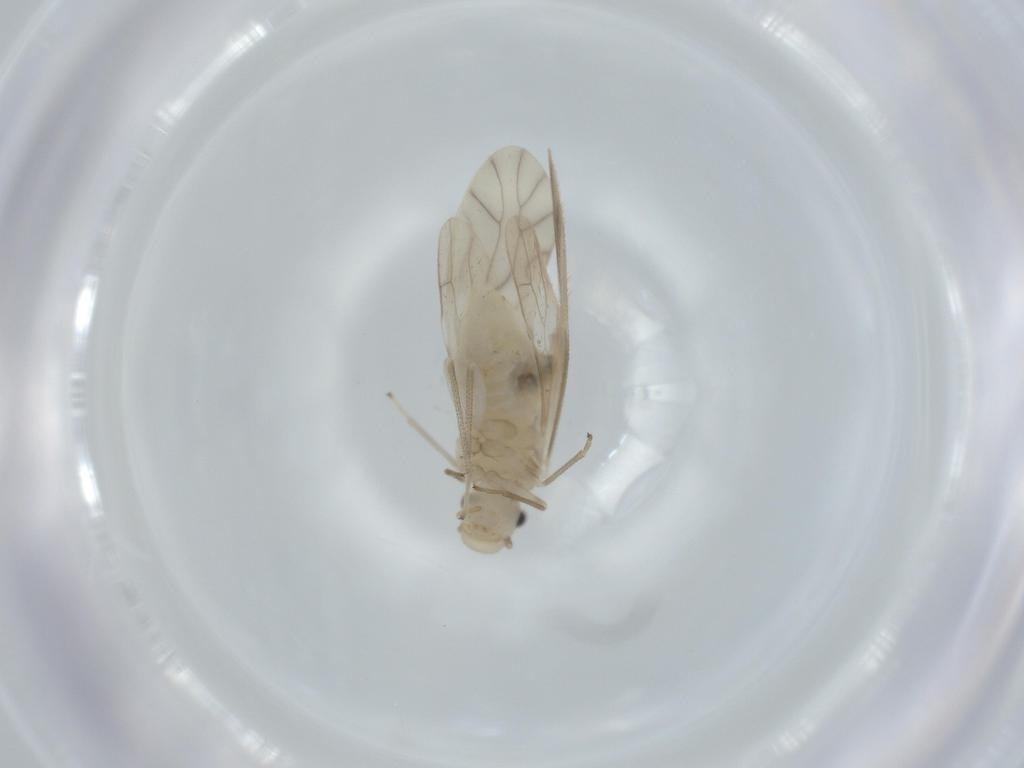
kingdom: Animalia
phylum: Arthropoda
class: Insecta
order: Psocodea
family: Caeciliusidae
